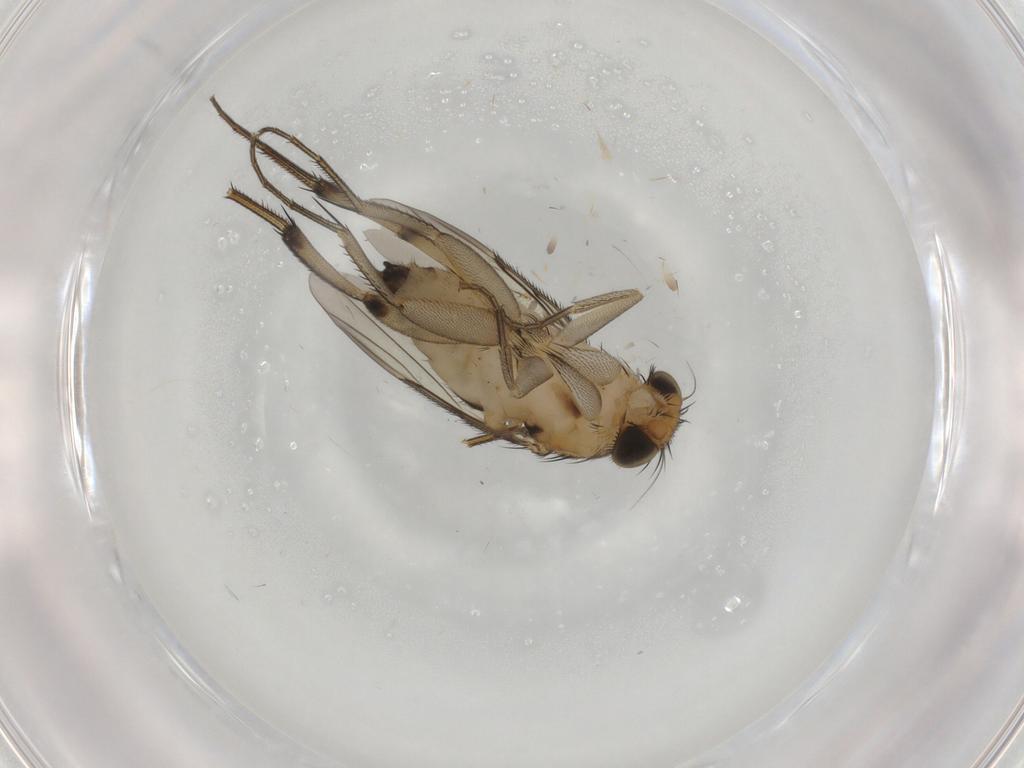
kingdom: Animalia
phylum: Arthropoda
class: Insecta
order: Diptera
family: Phoridae
